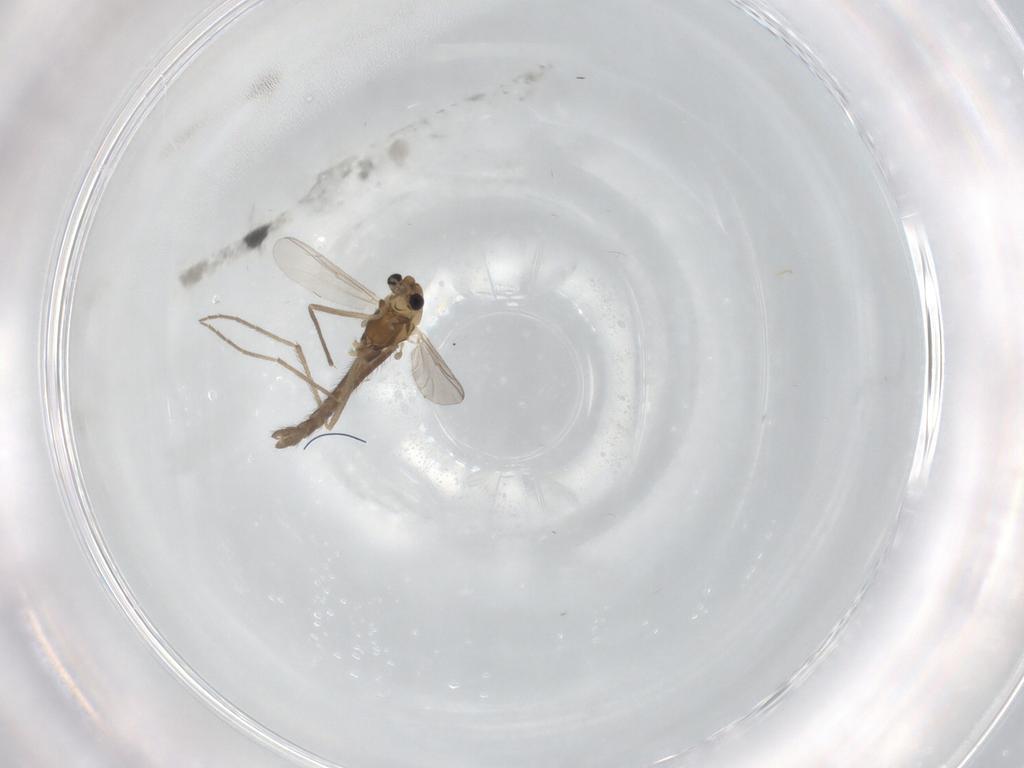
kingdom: Animalia
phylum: Arthropoda
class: Insecta
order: Diptera
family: Chironomidae
